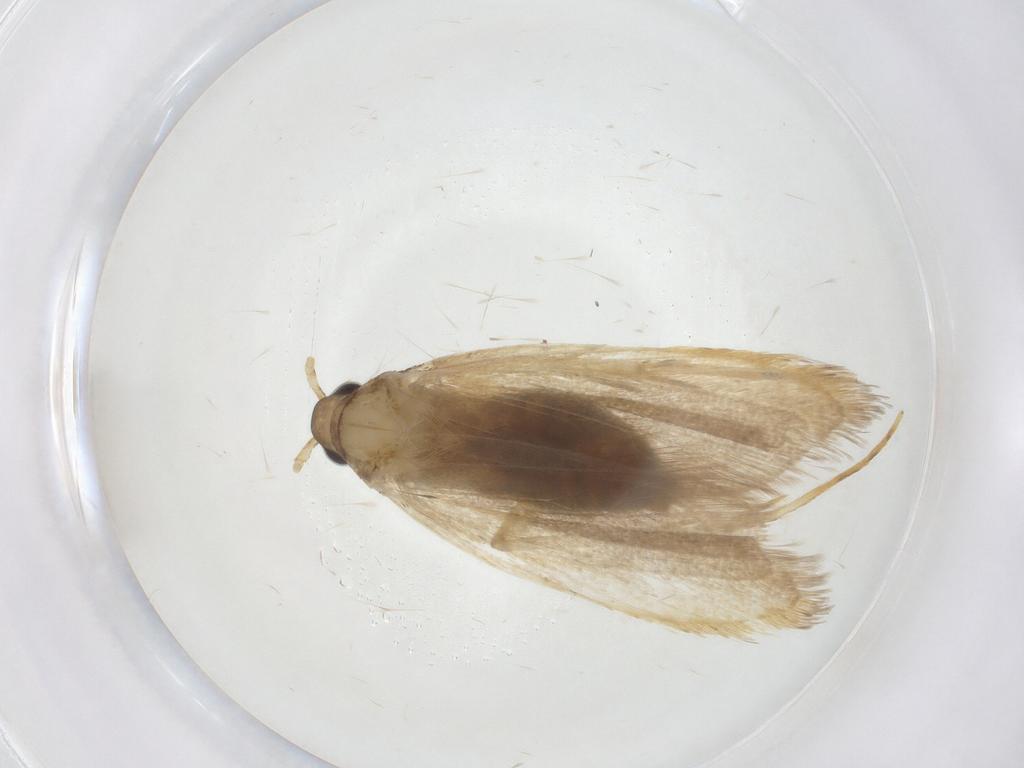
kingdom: Animalia
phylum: Arthropoda
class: Insecta
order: Lepidoptera
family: Lecithoceridae
